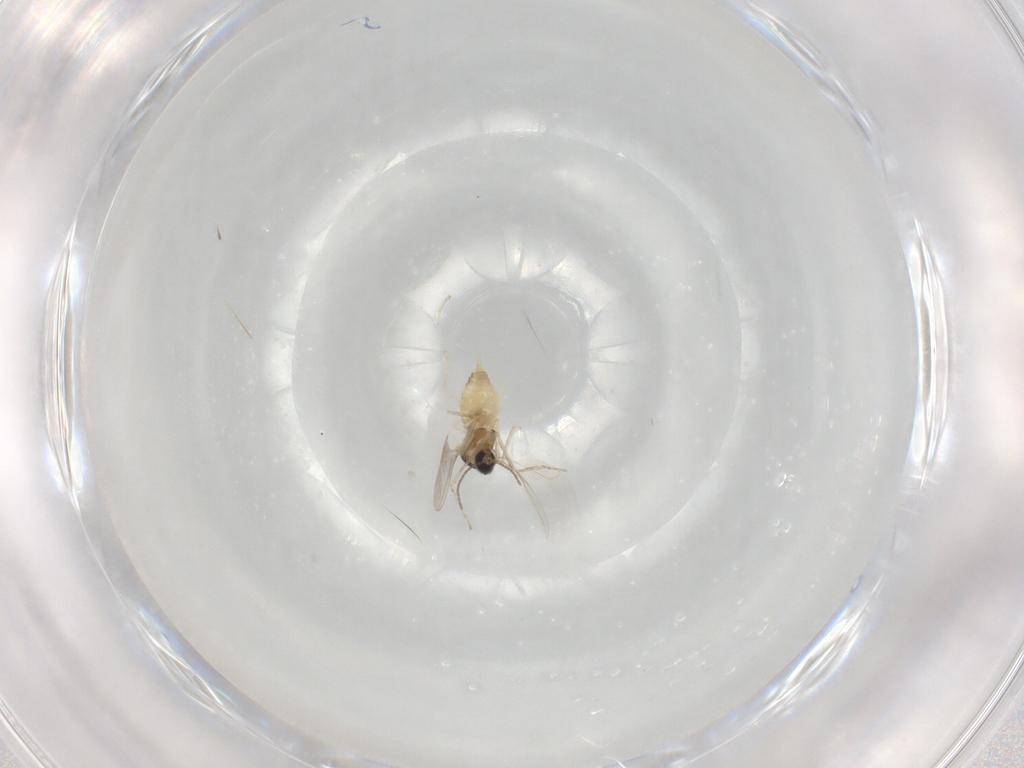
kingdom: Animalia
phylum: Arthropoda
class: Insecta
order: Diptera
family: Cecidomyiidae
